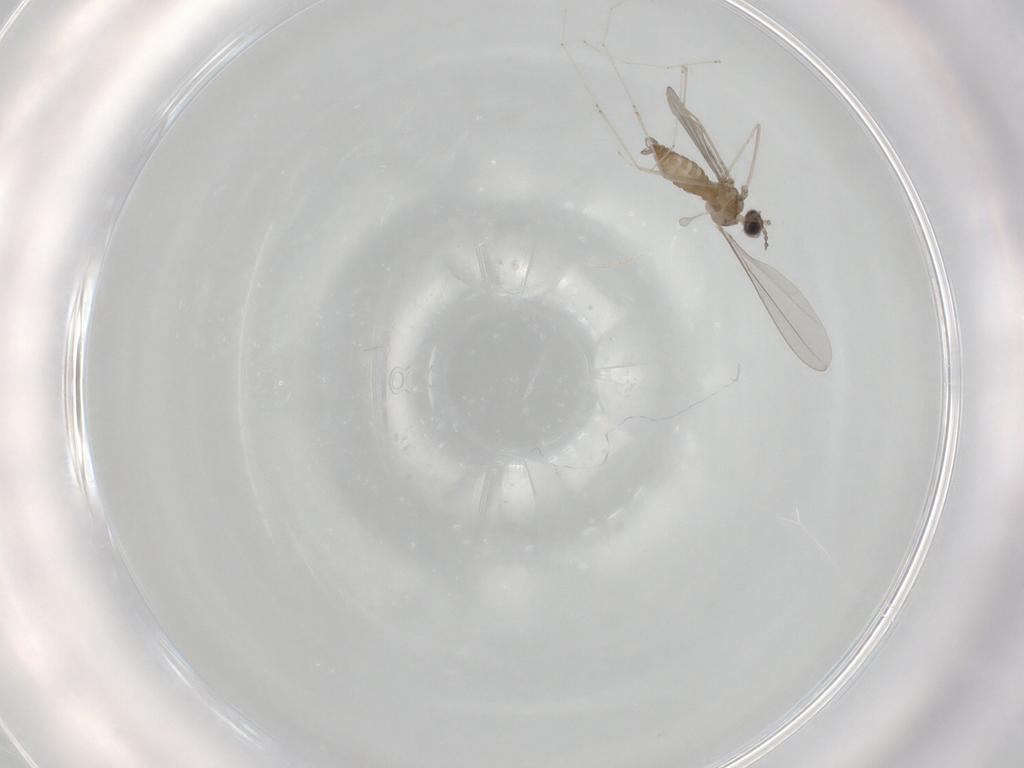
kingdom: Animalia
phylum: Arthropoda
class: Insecta
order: Diptera
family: Cecidomyiidae
